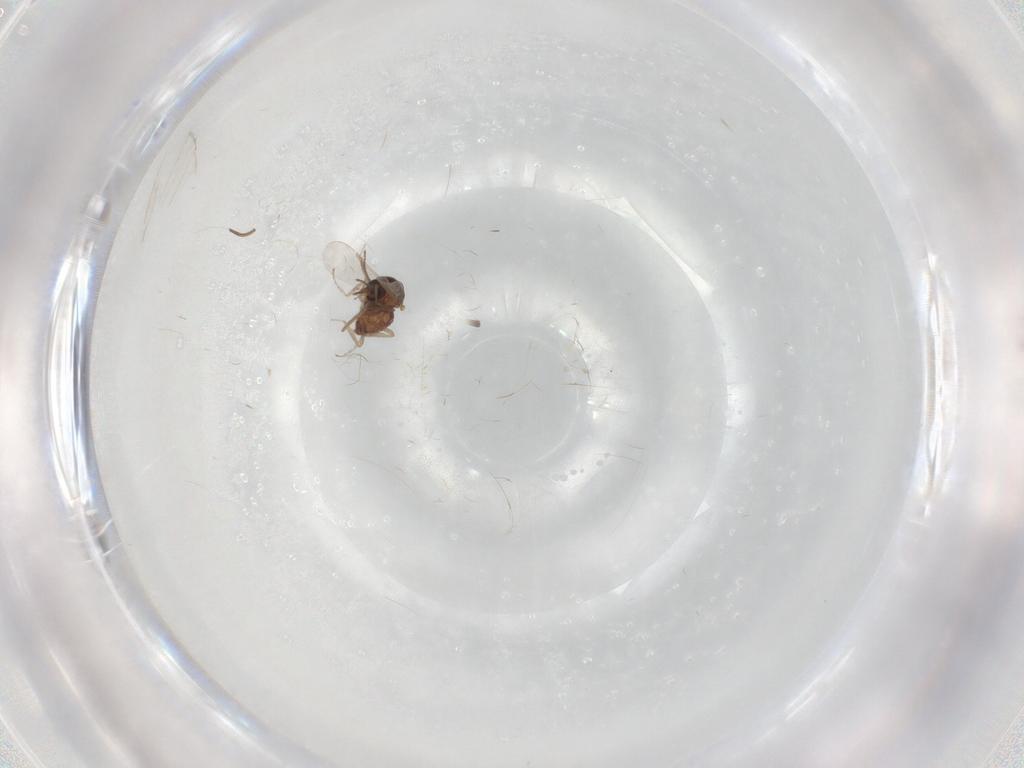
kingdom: Animalia
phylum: Arthropoda
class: Insecta
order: Diptera
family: Ceratopogonidae
